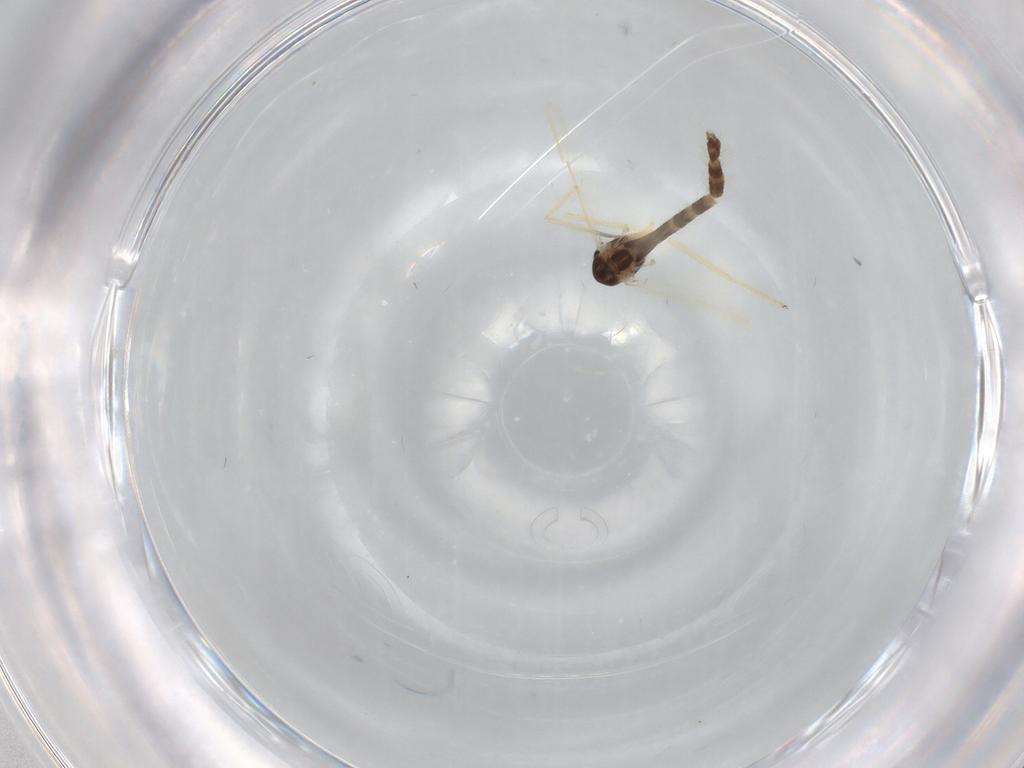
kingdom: Animalia
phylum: Arthropoda
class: Insecta
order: Diptera
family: Chironomidae
